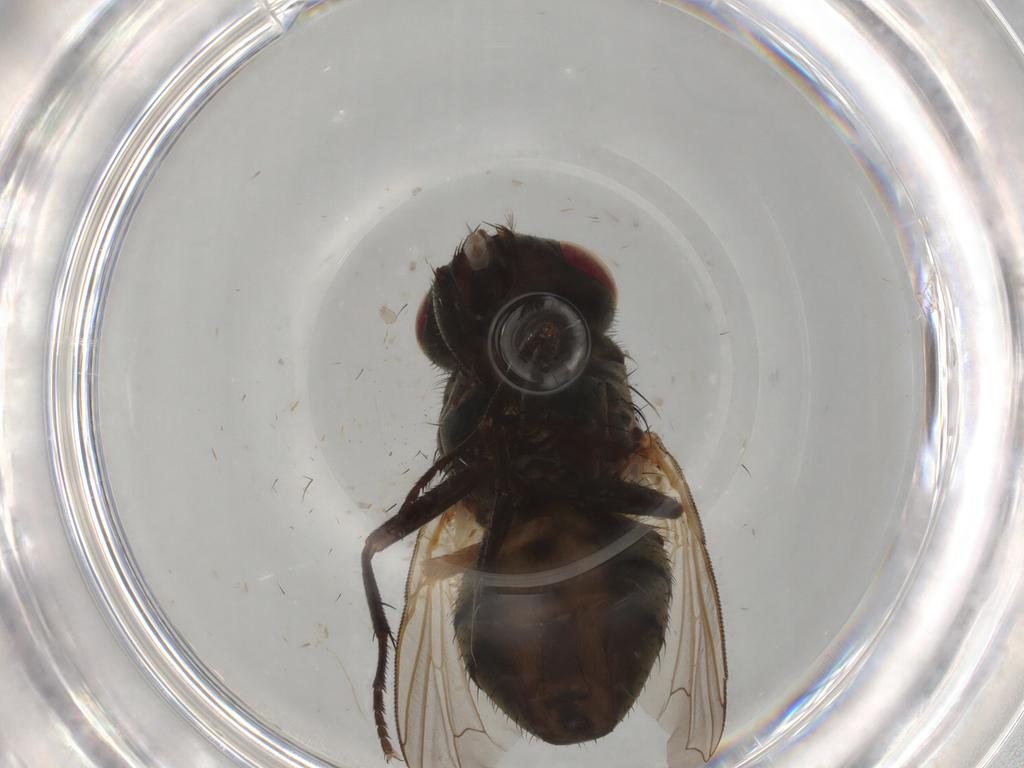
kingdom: Animalia
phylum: Arthropoda
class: Insecta
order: Diptera
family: Muscidae
